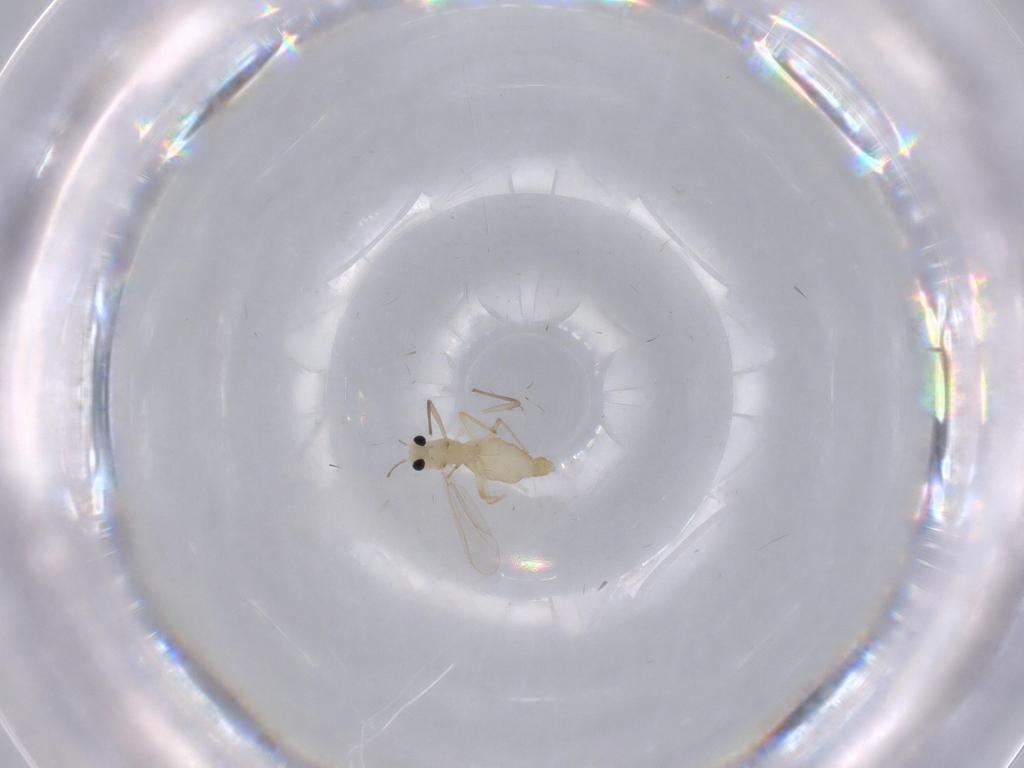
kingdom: Animalia
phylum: Arthropoda
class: Insecta
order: Diptera
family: Chironomidae
